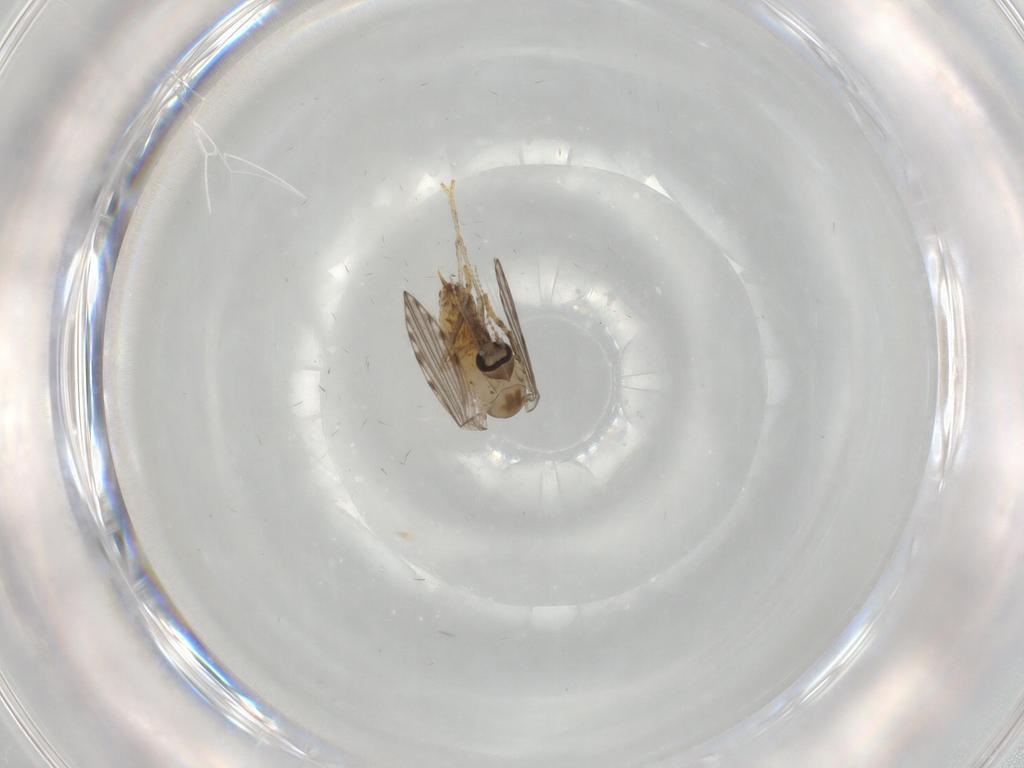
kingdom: Animalia
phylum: Arthropoda
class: Insecta
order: Diptera
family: Psychodidae
